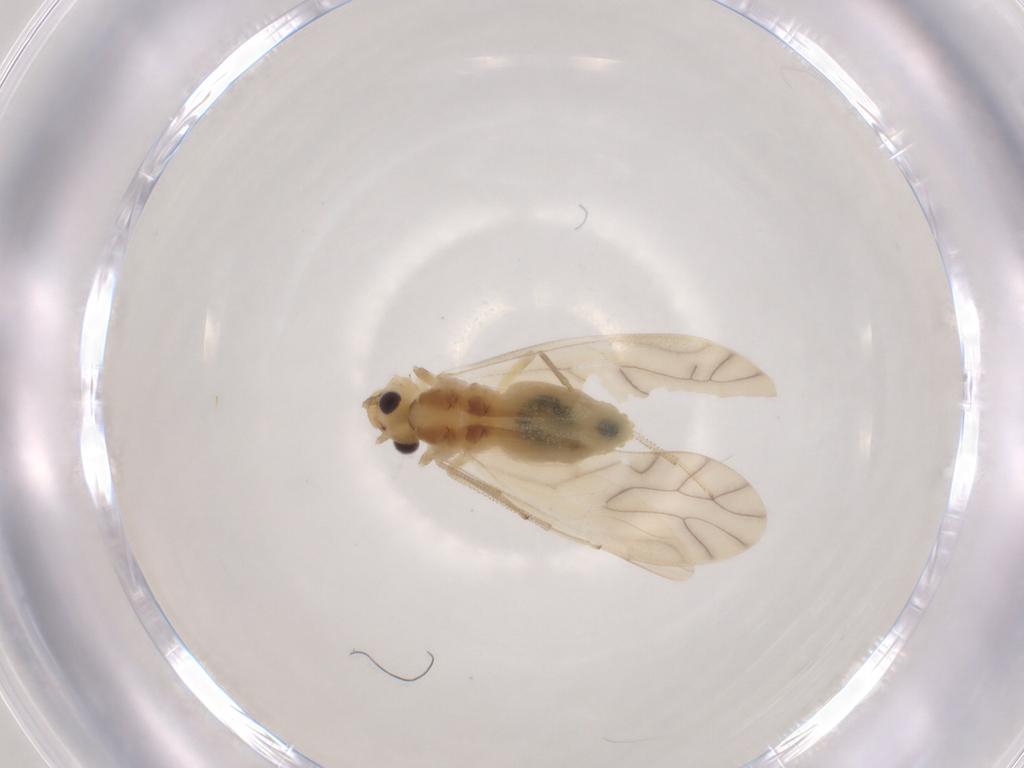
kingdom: Animalia
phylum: Arthropoda
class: Insecta
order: Psocodea
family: Caeciliusidae
